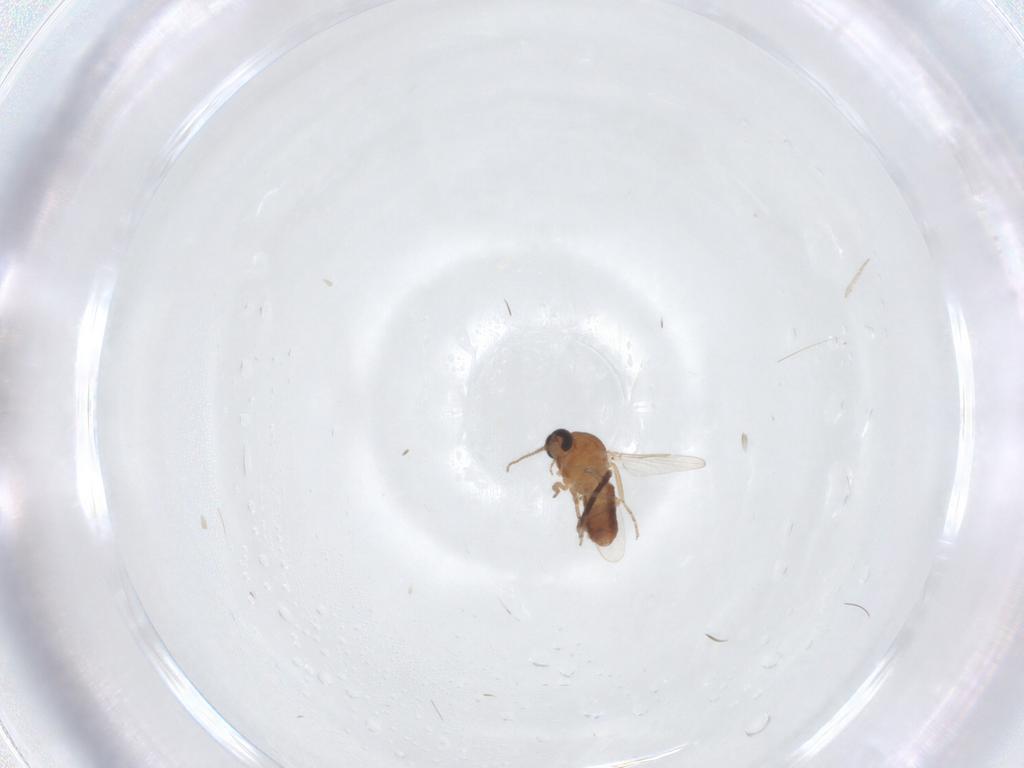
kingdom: Animalia
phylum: Arthropoda
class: Insecta
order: Diptera
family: Ceratopogonidae
